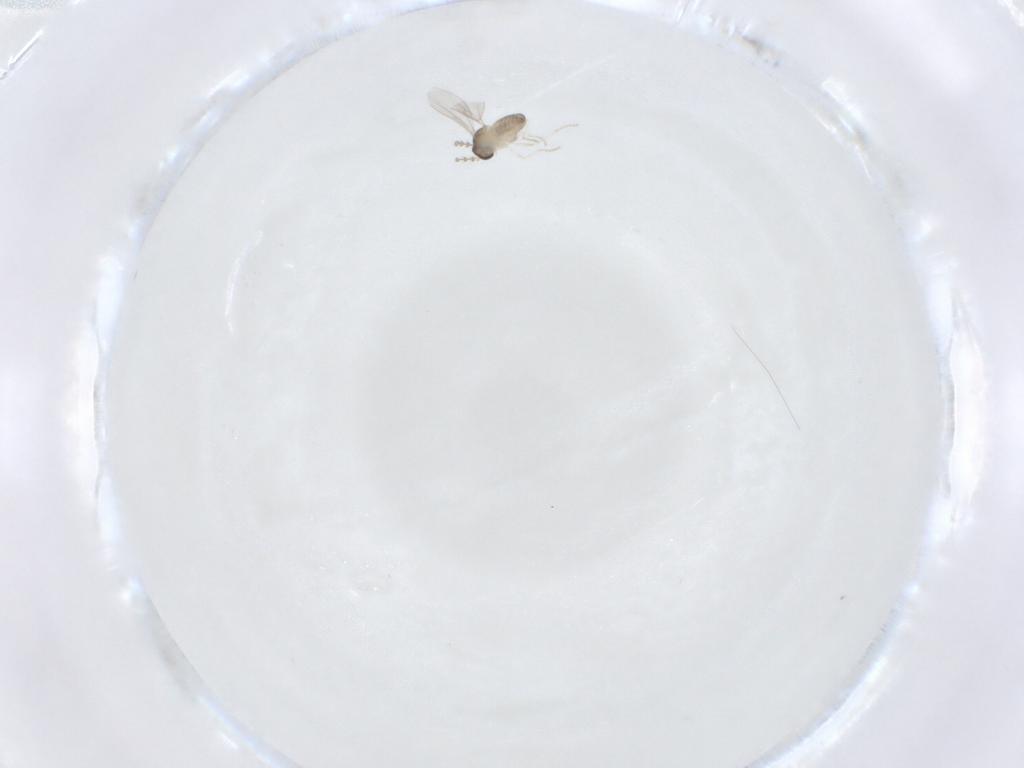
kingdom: Animalia
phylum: Arthropoda
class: Insecta
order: Diptera
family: Cecidomyiidae
